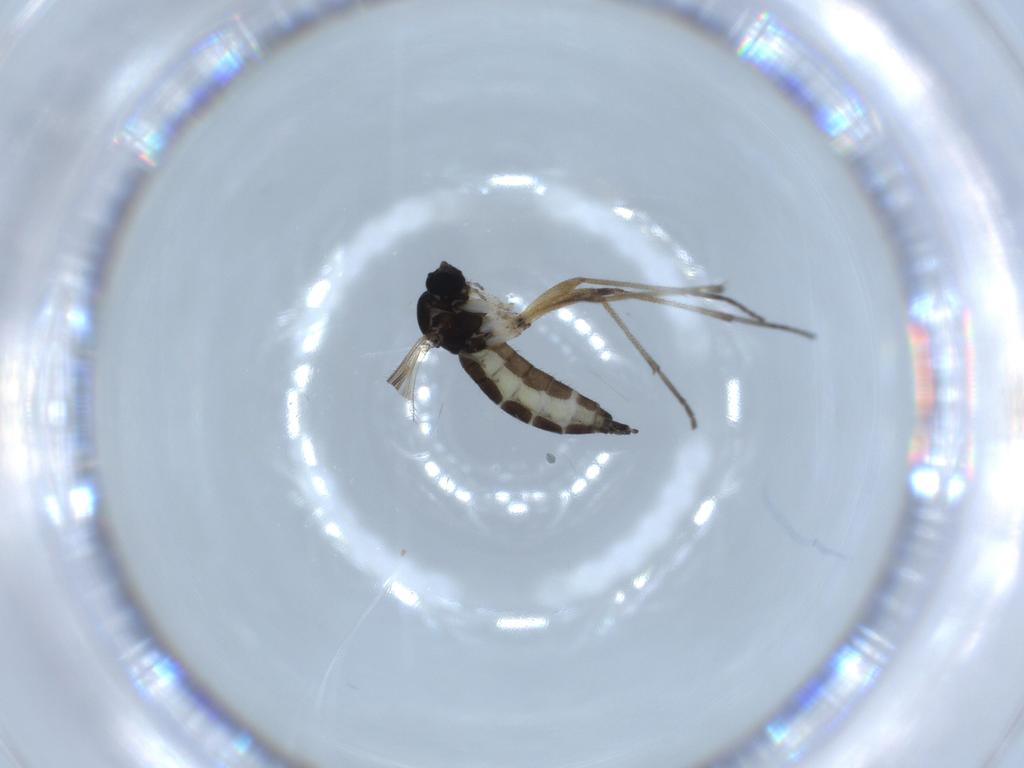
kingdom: Animalia
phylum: Arthropoda
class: Insecta
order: Diptera
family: Sciaridae
